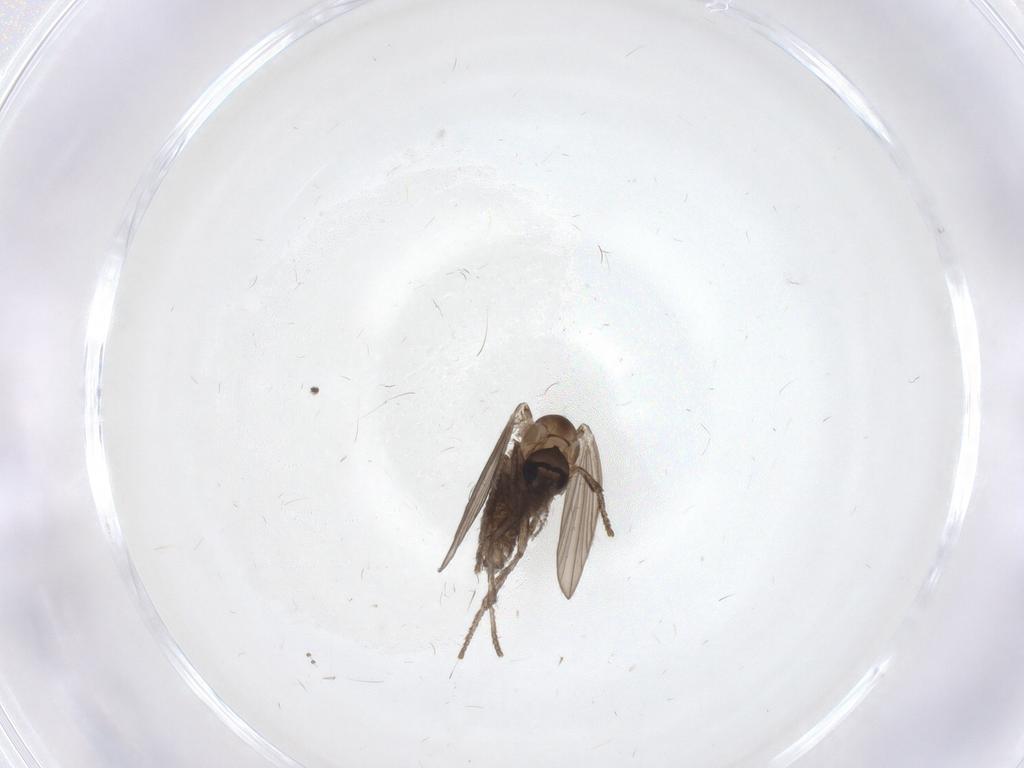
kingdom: Animalia
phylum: Arthropoda
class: Insecta
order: Diptera
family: Psychodidae
